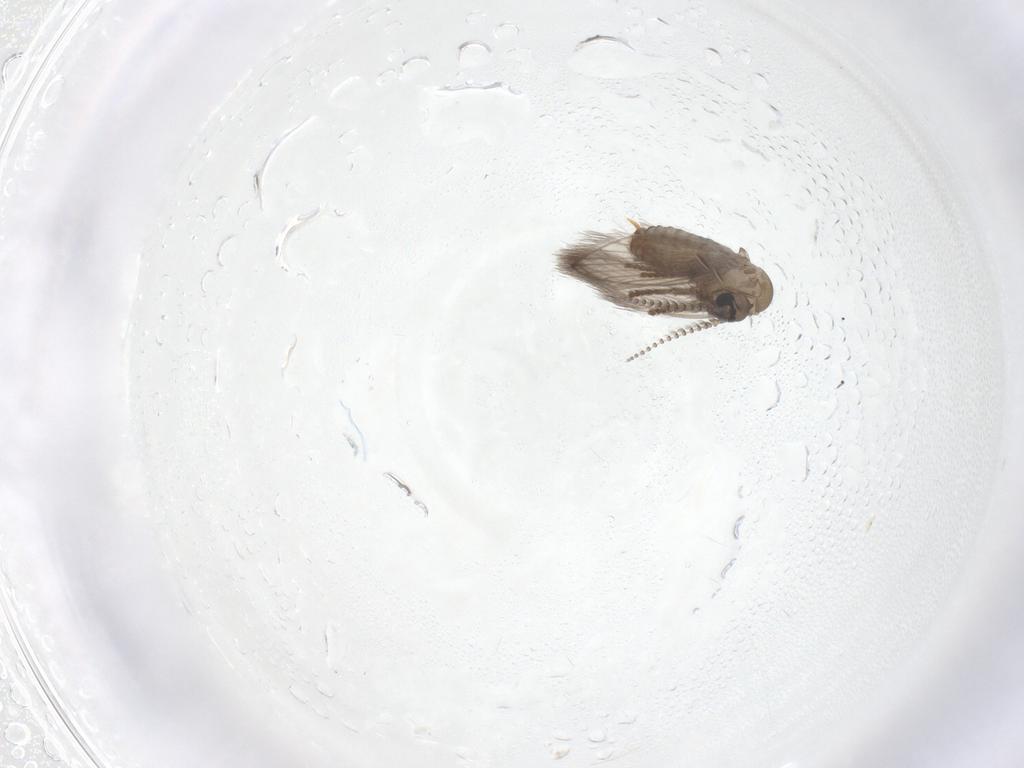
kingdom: Animalia
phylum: Arthropoda
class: Insecta
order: Diptera
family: Psychodidae
